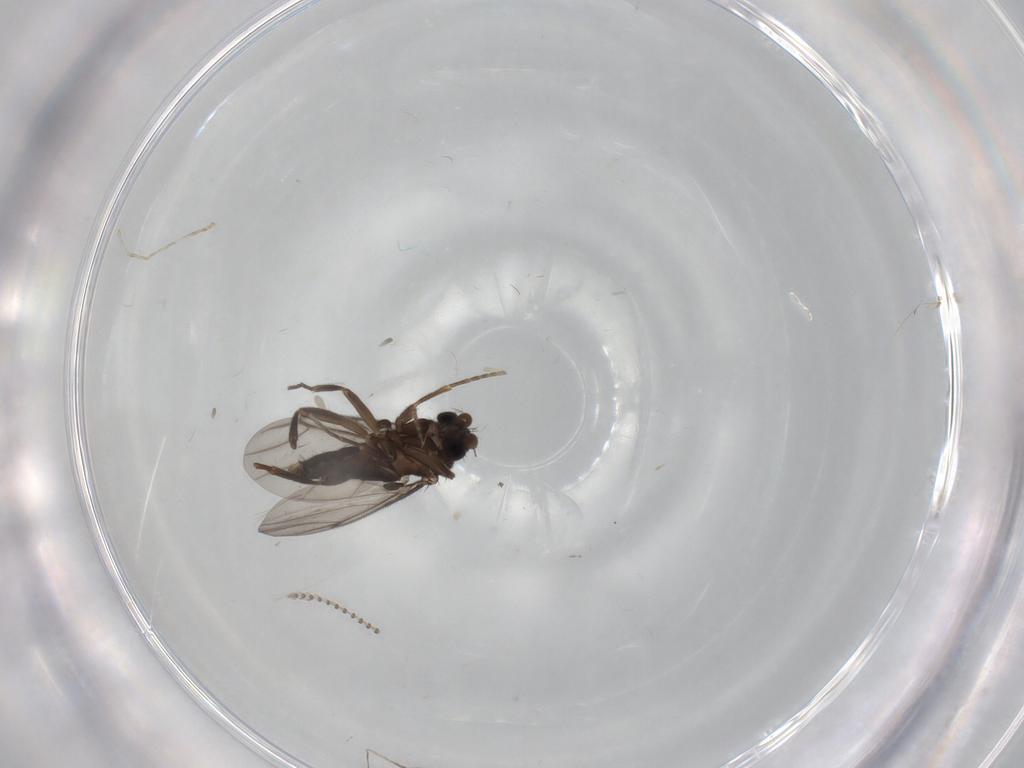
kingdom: Animalia
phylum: Arthropoda
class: Insecta
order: Diptera
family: Cecidomyiidae
